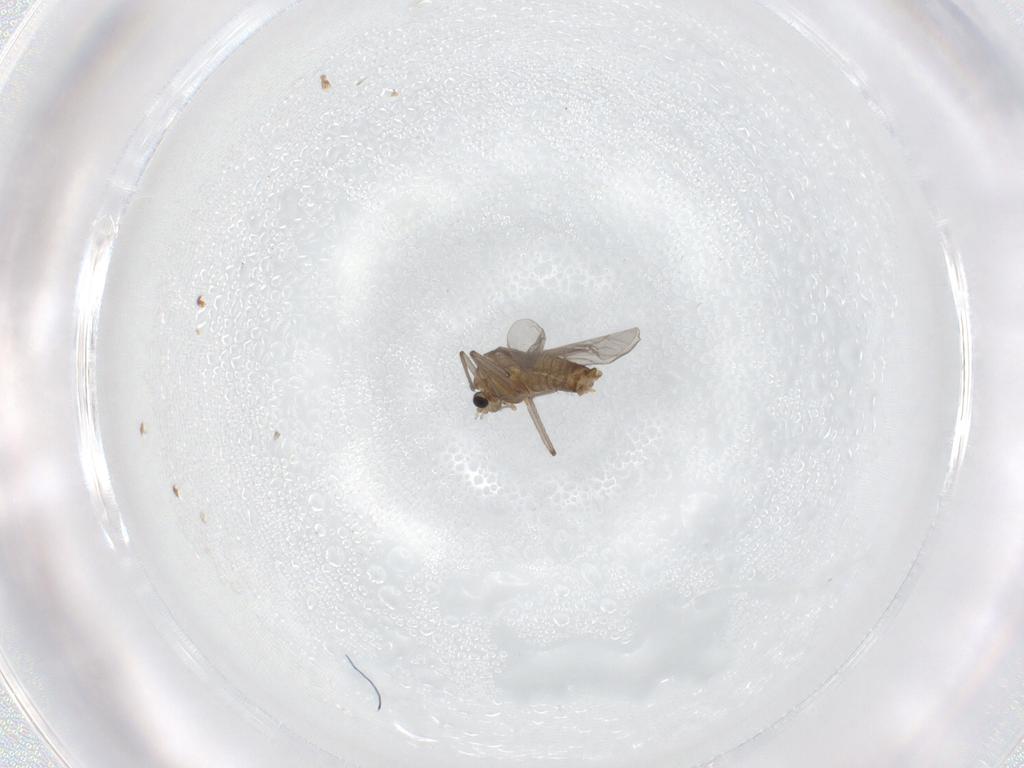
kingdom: Animalia
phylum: Arthropoda
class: Insecta
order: Diptera
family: Chironomidae
